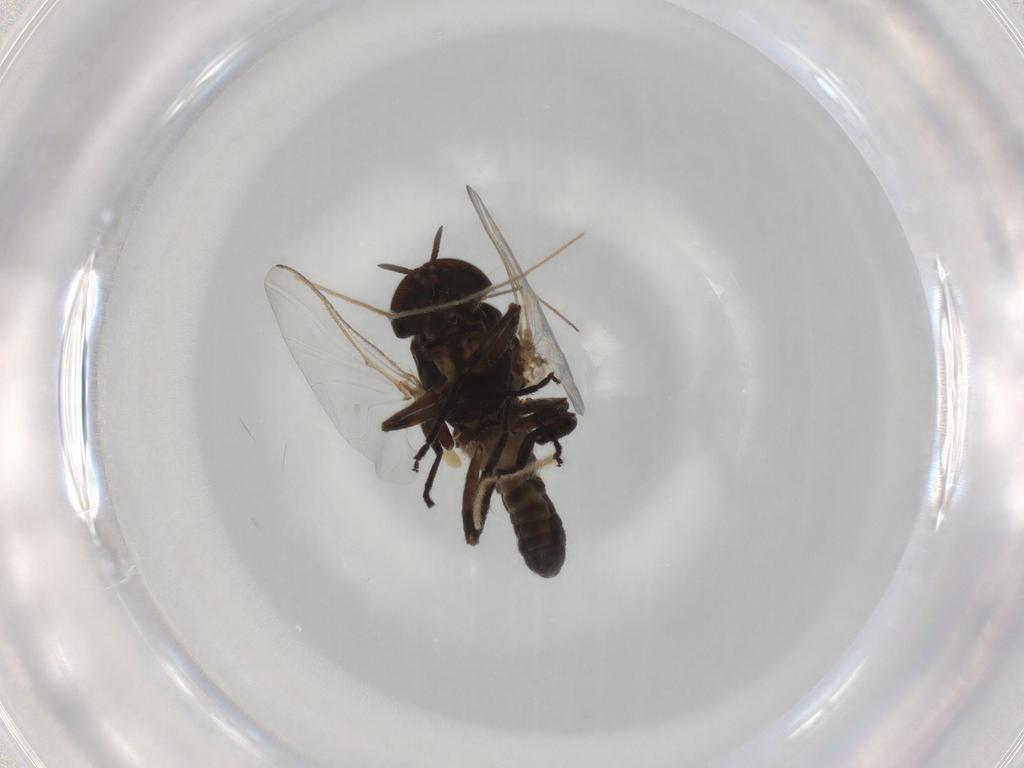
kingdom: Animalia
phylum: Arthropoda
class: Insecta
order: Diptera
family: Psychodidae
